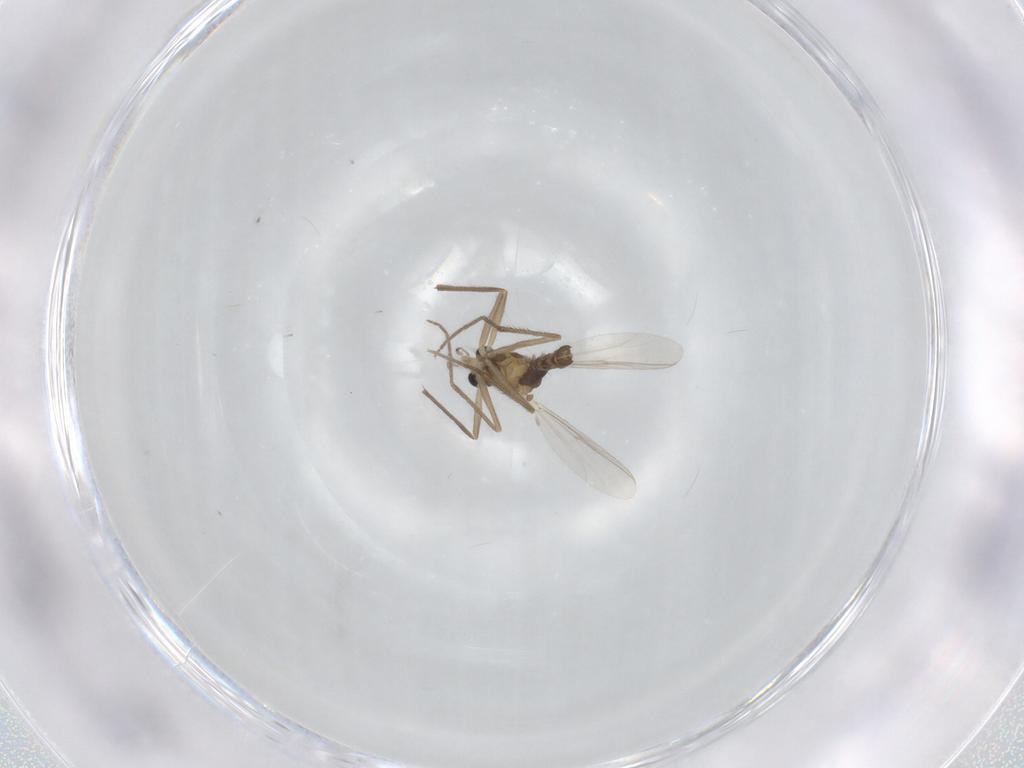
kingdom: Animalia
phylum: Arthropoda
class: Insecta
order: Diptera
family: Chironomidae
